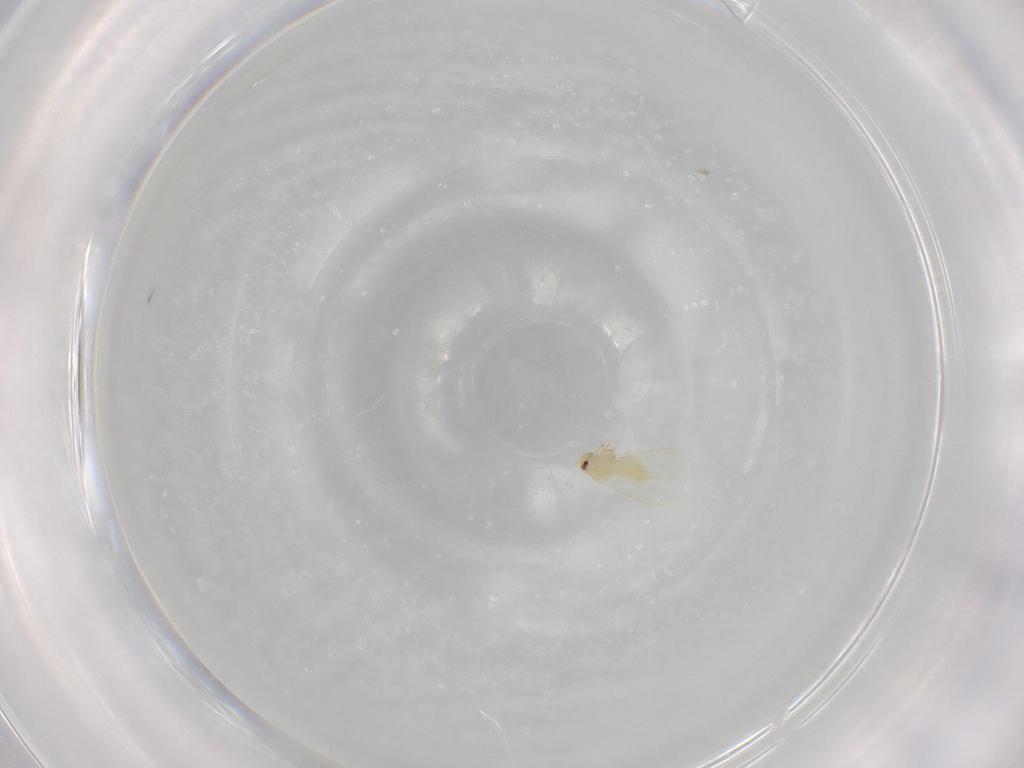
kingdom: Animalia
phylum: Arthropoda
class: Insecta
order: Hemiptera
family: Aleyrodidae
